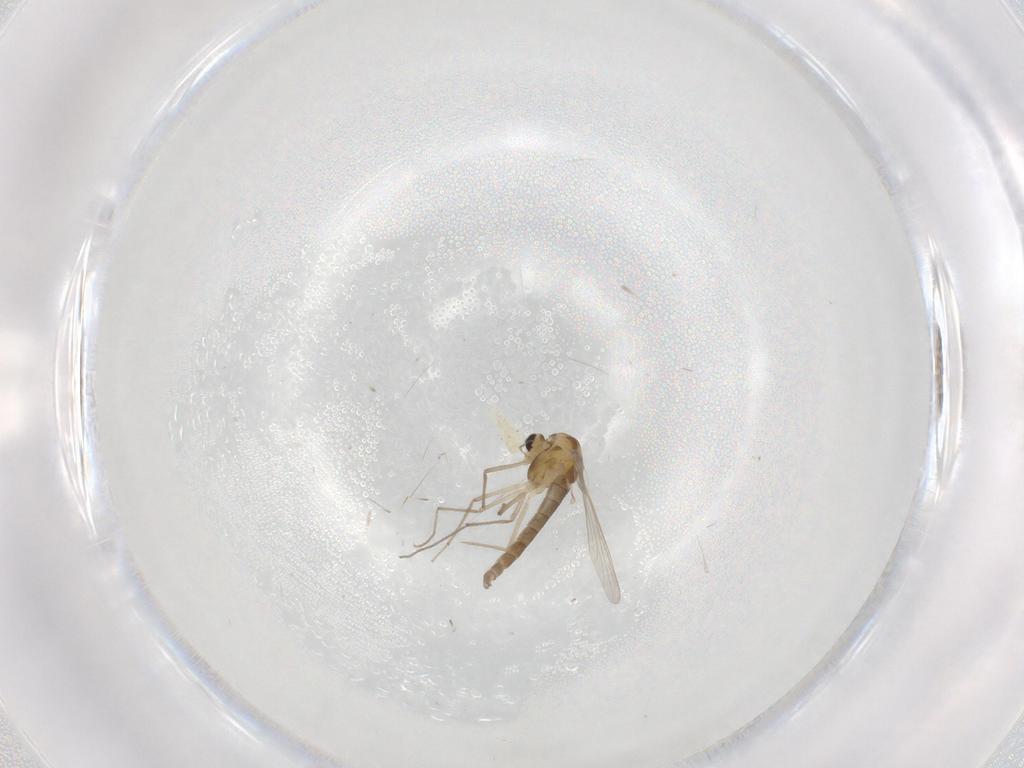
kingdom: Animalia
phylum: Arthropoda
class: Insecta
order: Diptera
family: Chironomidae
